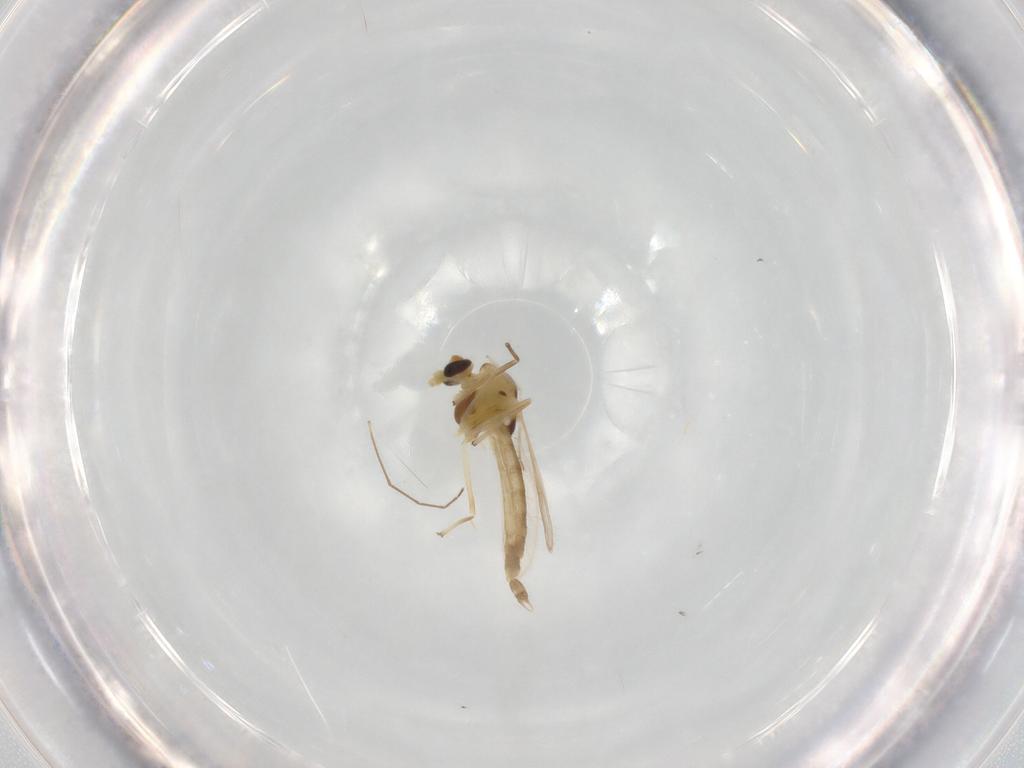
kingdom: Animalia
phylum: Arthropoda
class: Insecta
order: Diptera
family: Chironomidae
